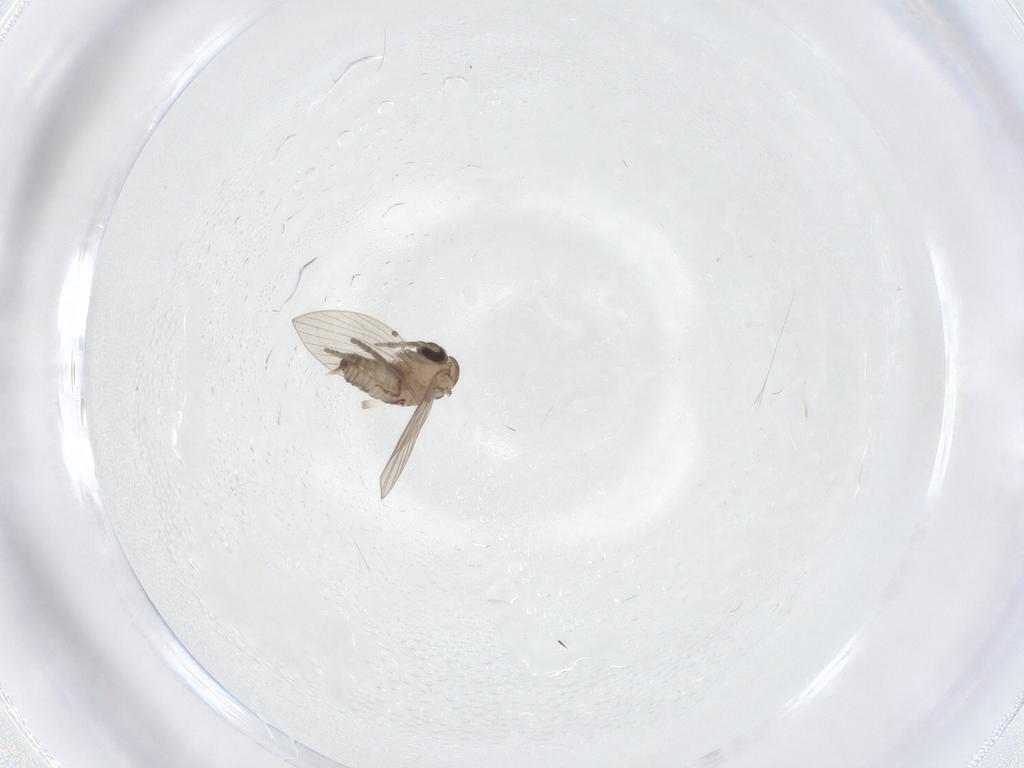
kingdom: Animalia
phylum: Arthropoda
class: Insecta
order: Diptera
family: Psychodidae
